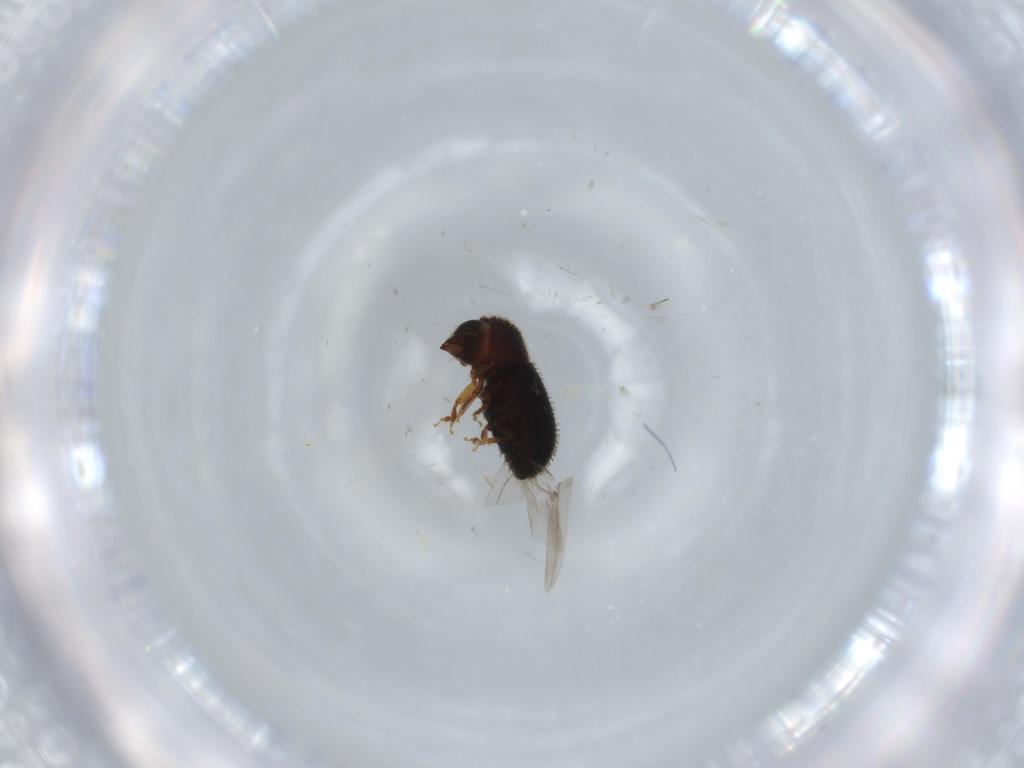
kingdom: Animalia
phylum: Arthropoda
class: Insecta
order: Coleoptera
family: Curculionidae
